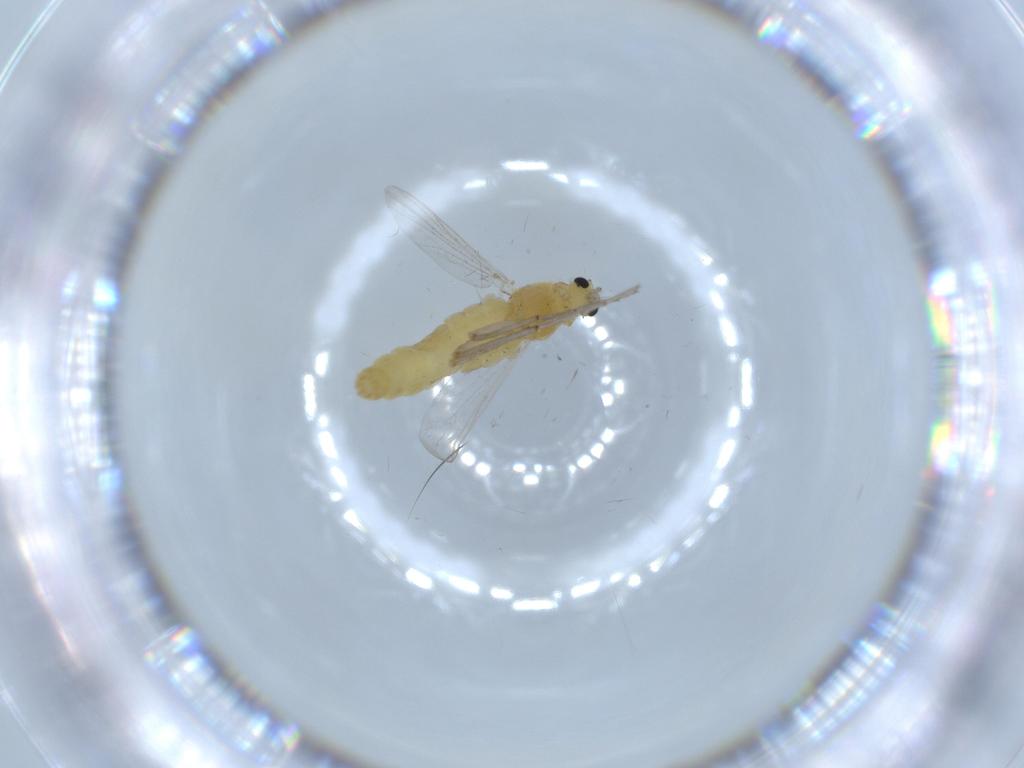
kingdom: Animalia
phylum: Arthropoda
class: Insecta
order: Diptera
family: Chironomidae
